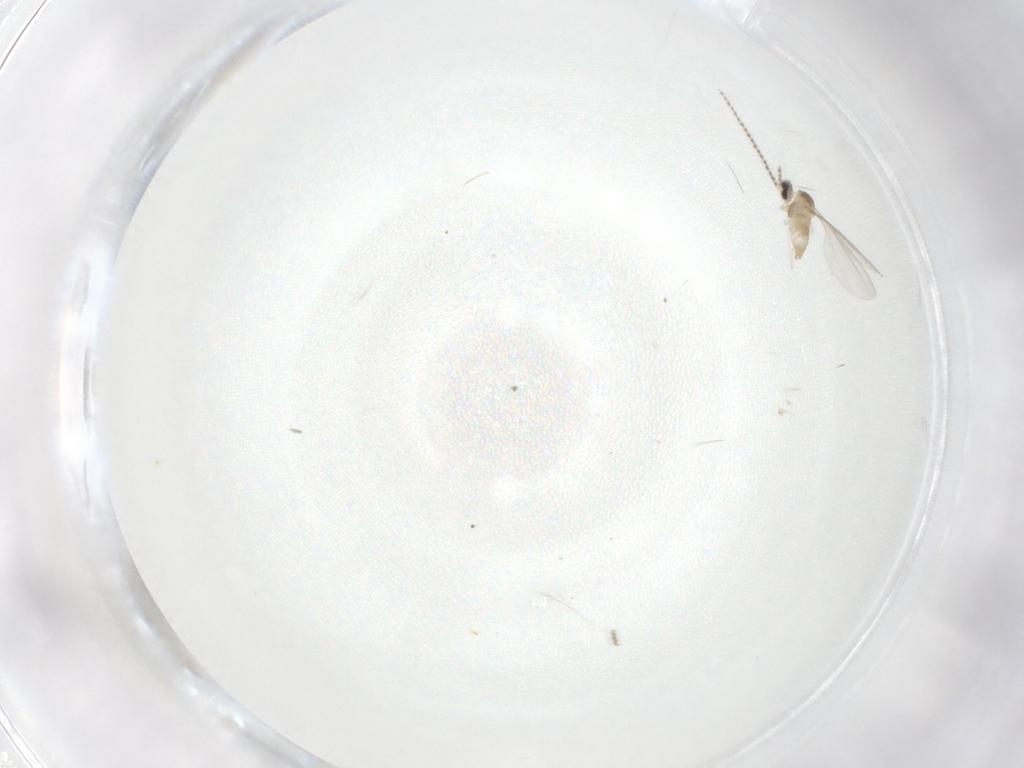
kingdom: Animalia
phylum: Arthropoda
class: Insecta
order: Diptera
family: Cecidomyiidae
